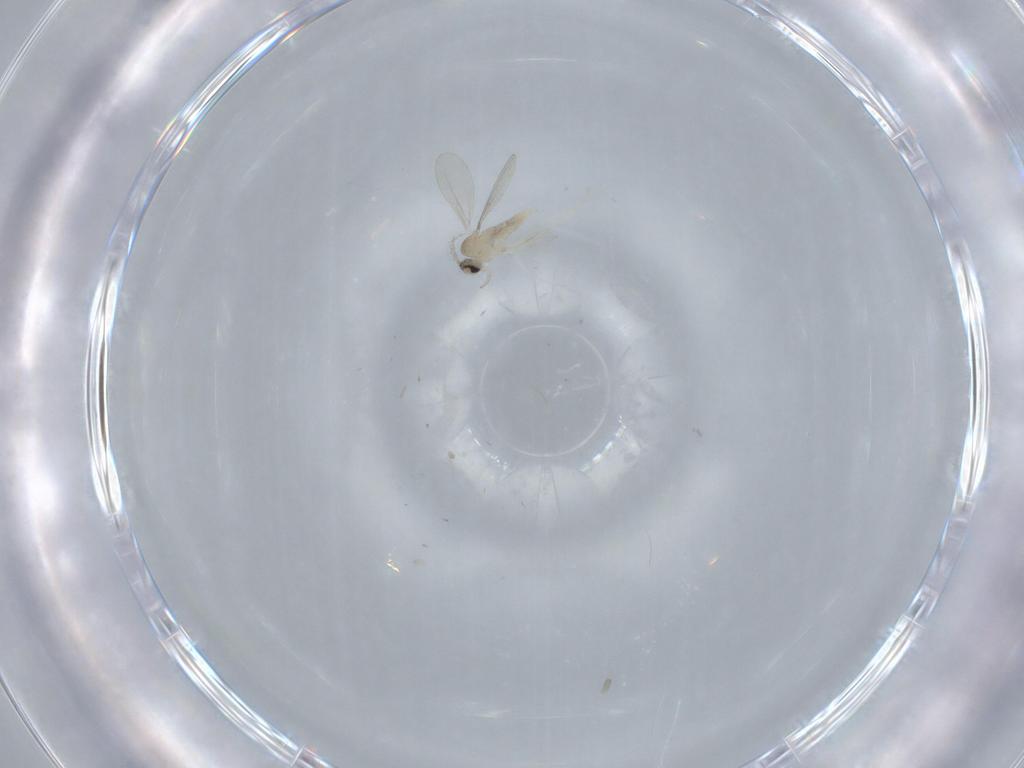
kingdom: Animalia
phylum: Arthropoda
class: Insecta
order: Diptera
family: Cecidomyiidae
